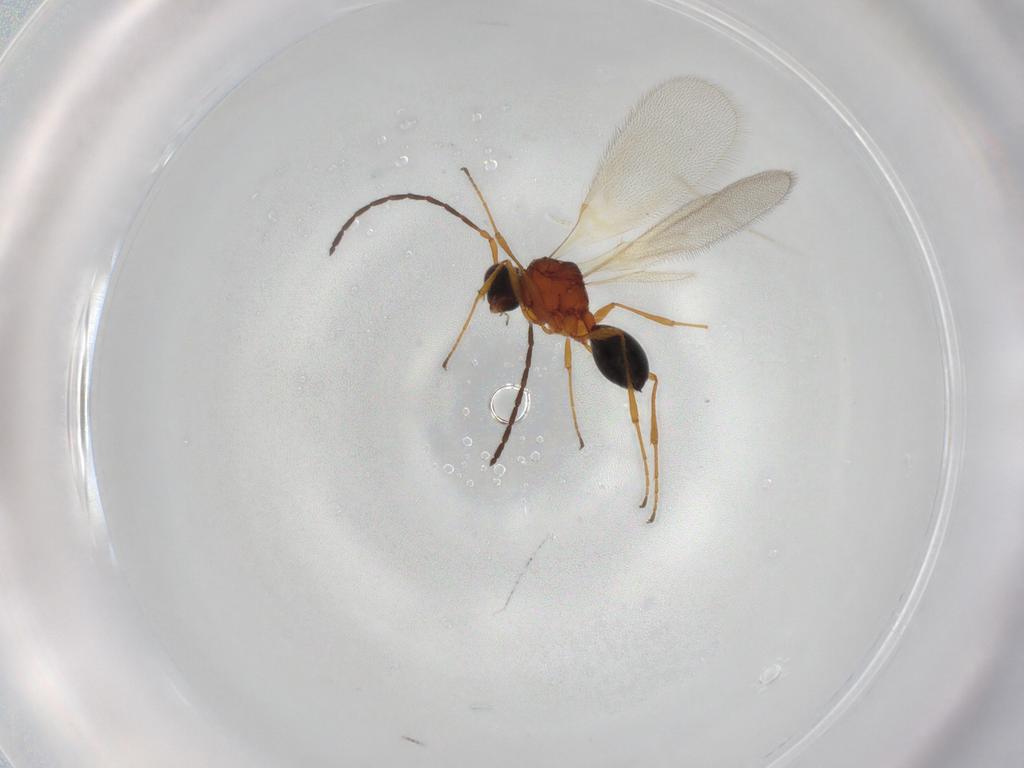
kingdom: Animalia
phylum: Arthropoda
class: Insecta
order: Hymenoptera
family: Diapriidae
